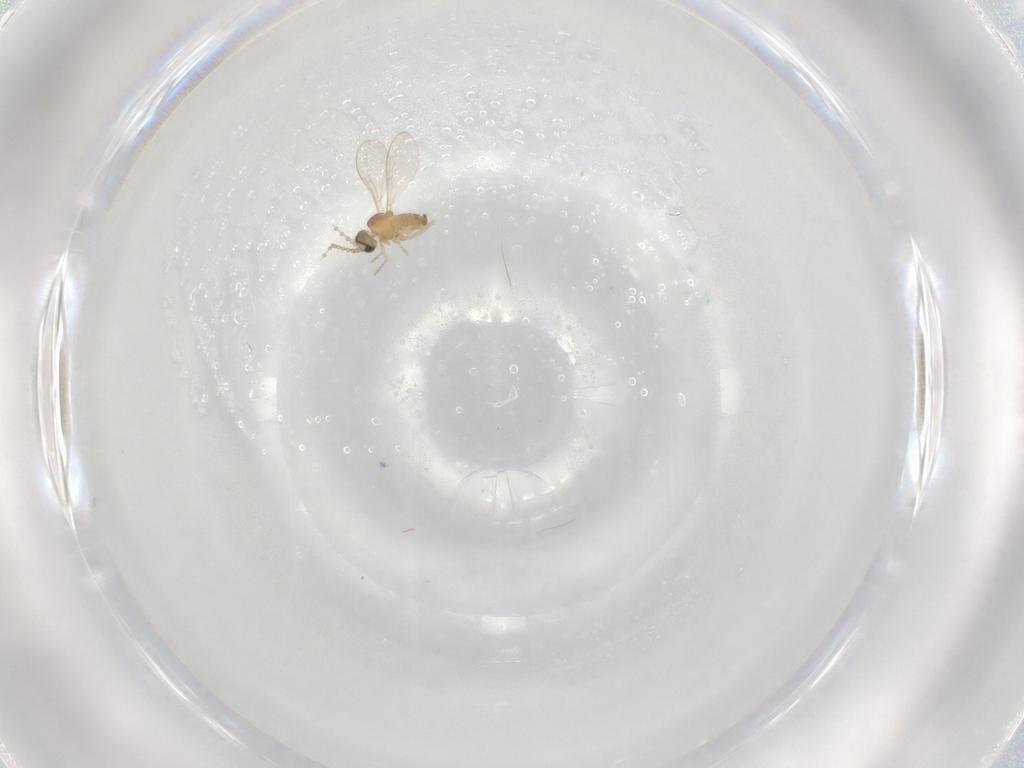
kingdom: Animalia
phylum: Arthropoda
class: Insecta
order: Diptera
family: Cecidomyiidae
